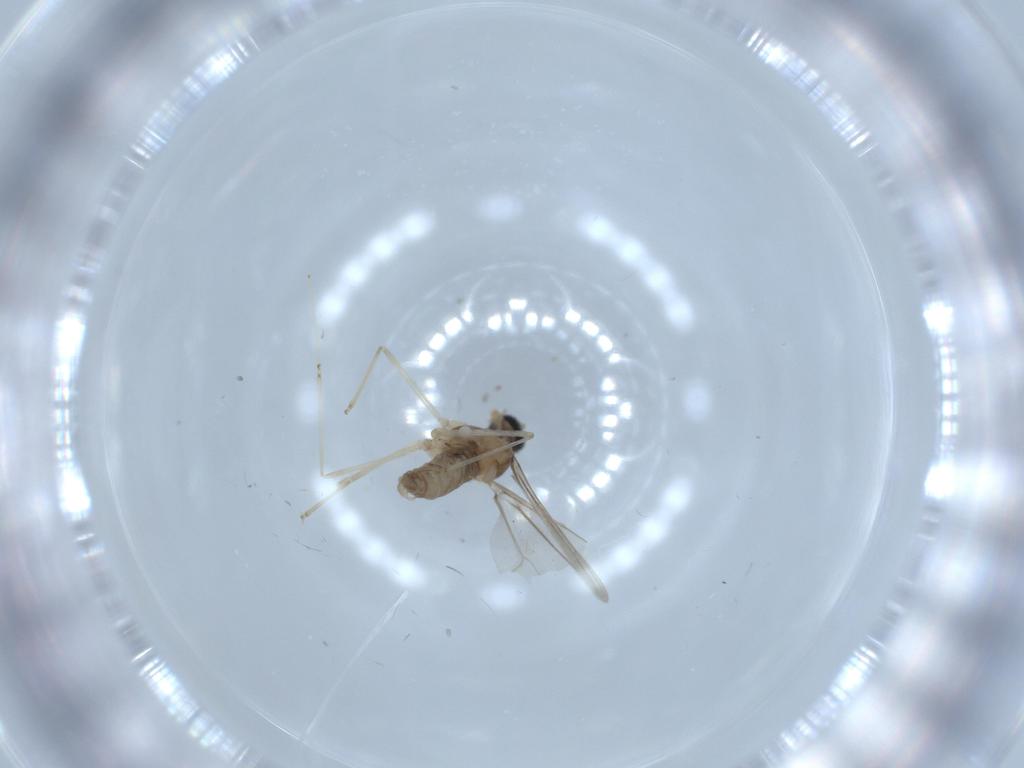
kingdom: Animalia
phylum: Arthropoda
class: Insecta
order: Diptera
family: Cecidomyiidae
